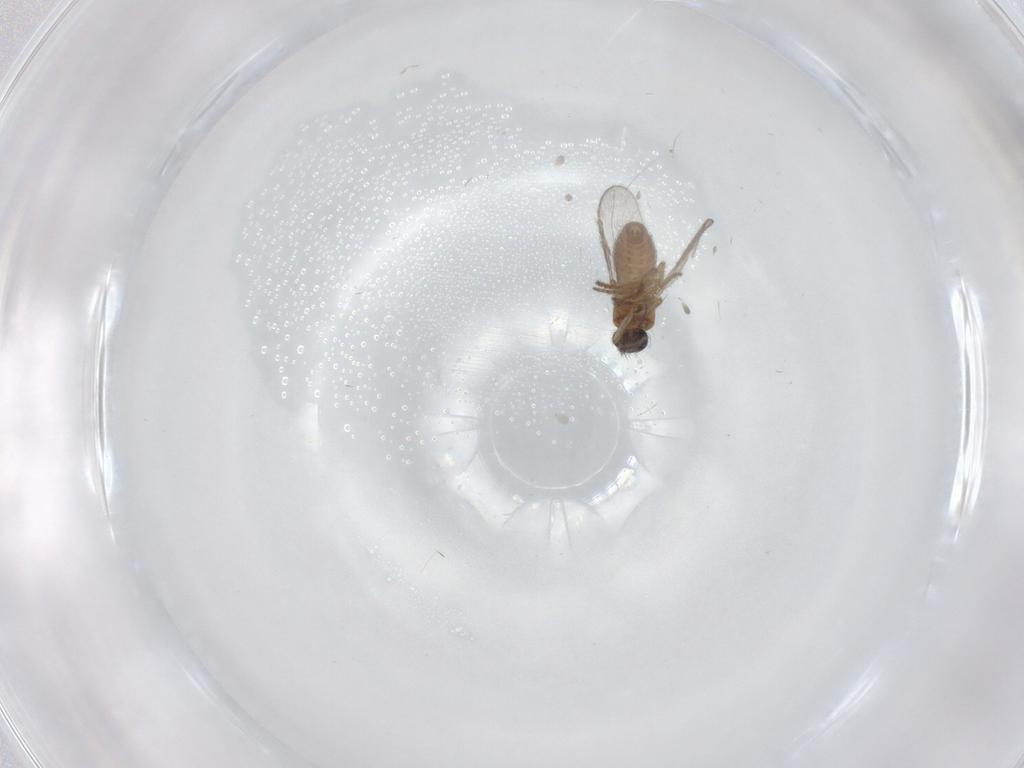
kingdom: Animalia
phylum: Arthropoda
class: Insecta
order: Diptera
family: Ceratopogonidae
